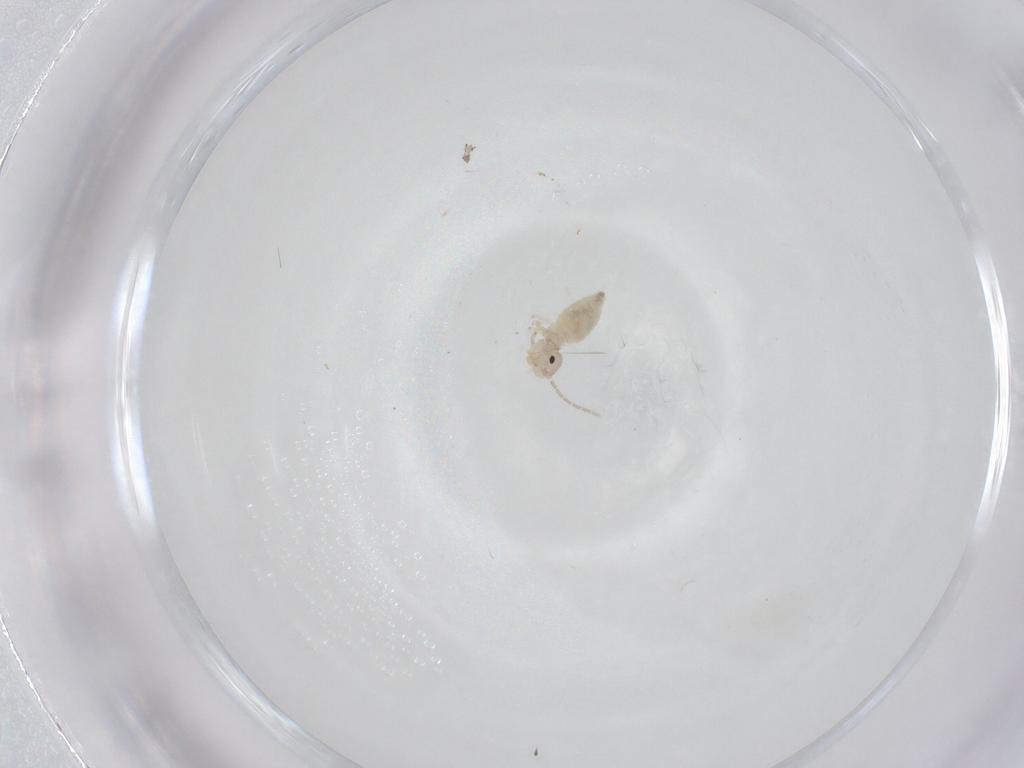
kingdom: Animalia
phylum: Arthropoda
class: Insecta
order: Psocodea
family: Amphipsocidae
